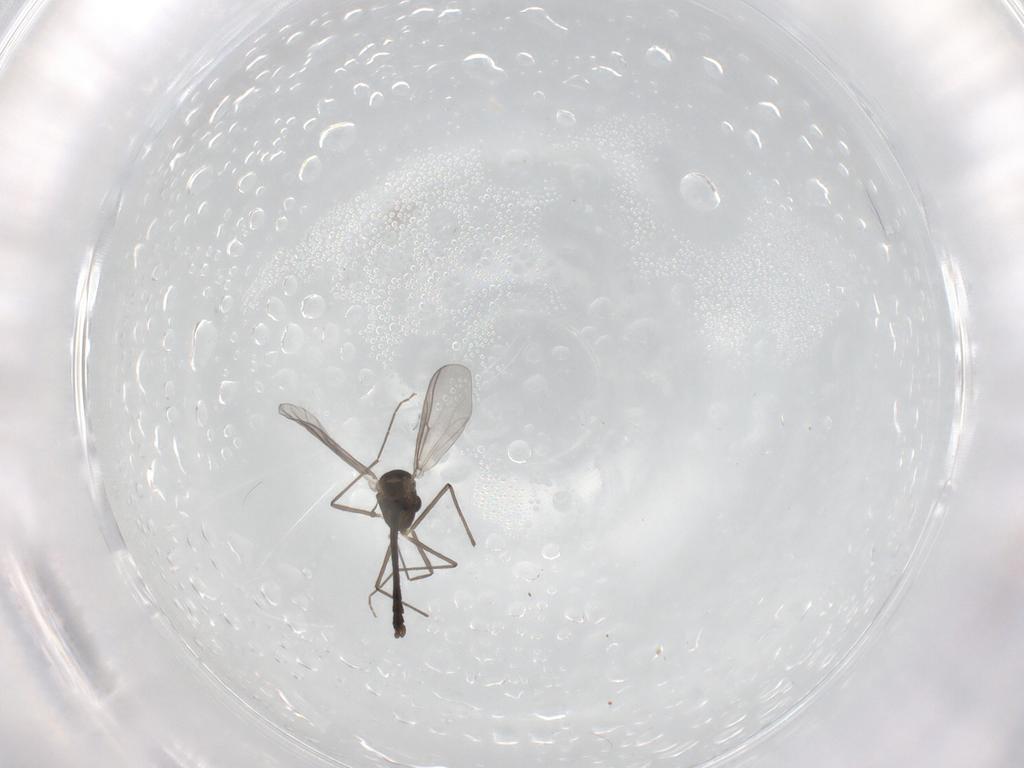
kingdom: Animalia
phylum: Arthropoda
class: Insecta
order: Diptera
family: Chironomidae
